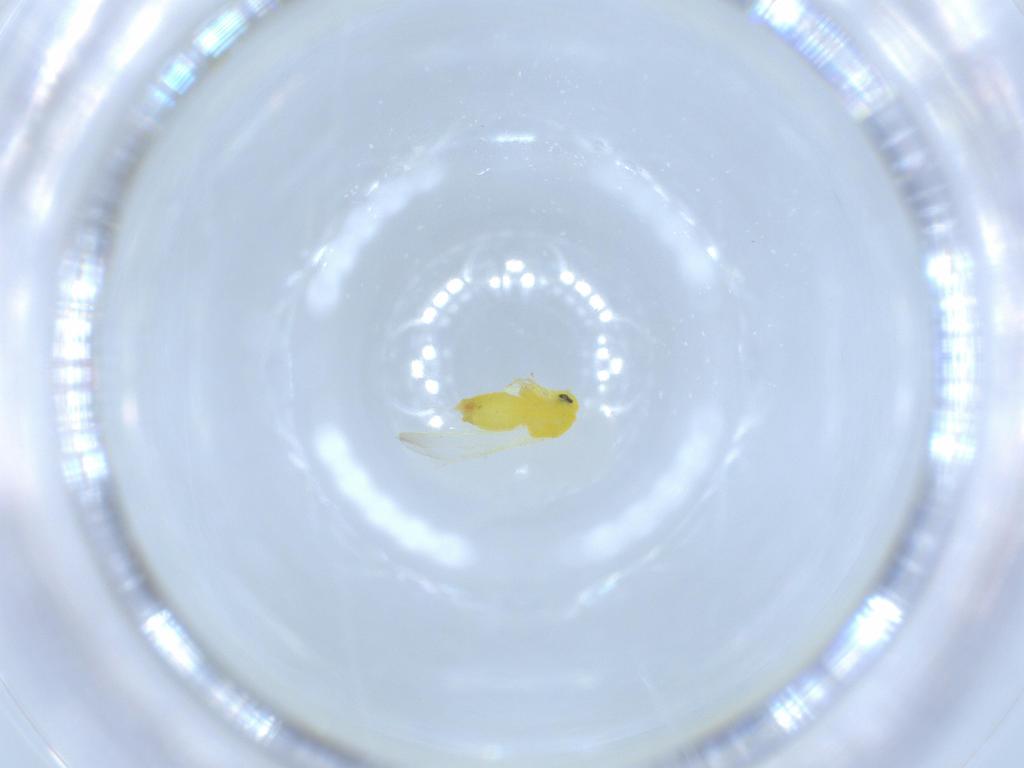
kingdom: Animalia
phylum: Arthropoda
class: Insecta
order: Hemiptera
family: Aleyrodidae
